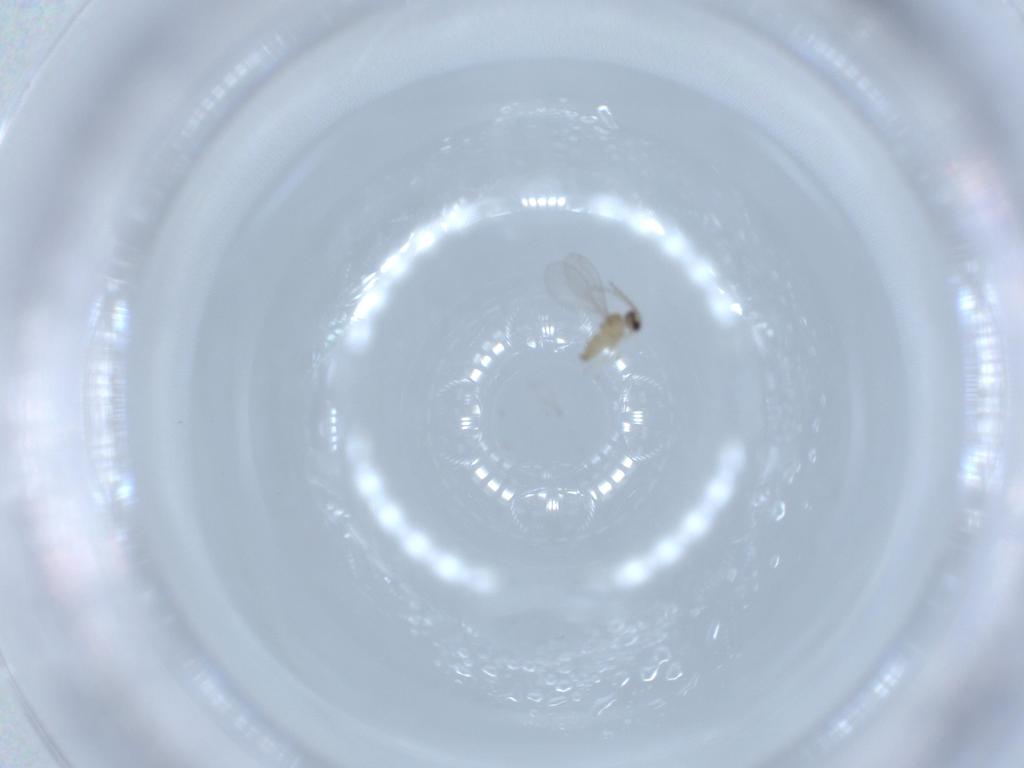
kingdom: Animalia
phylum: Arthropoda
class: Insecta
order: Diptera
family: Cecidomyiidae
